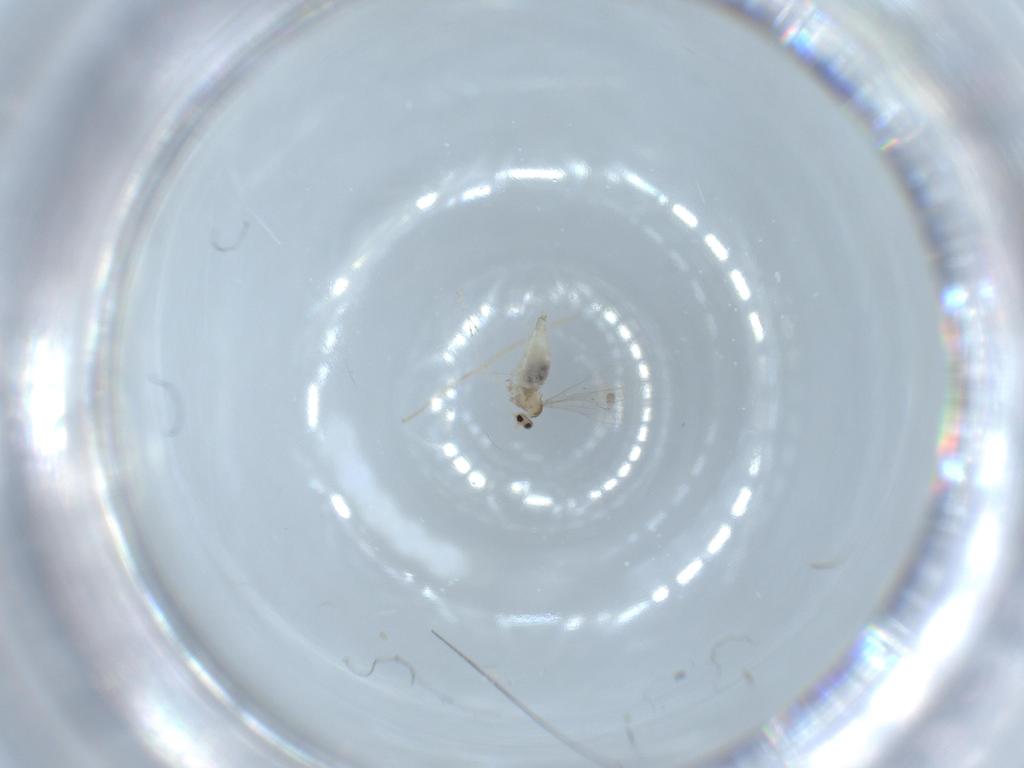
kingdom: Animalia
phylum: Arthropoda
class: Insecta
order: Diptera
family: Cecidomyiidae
